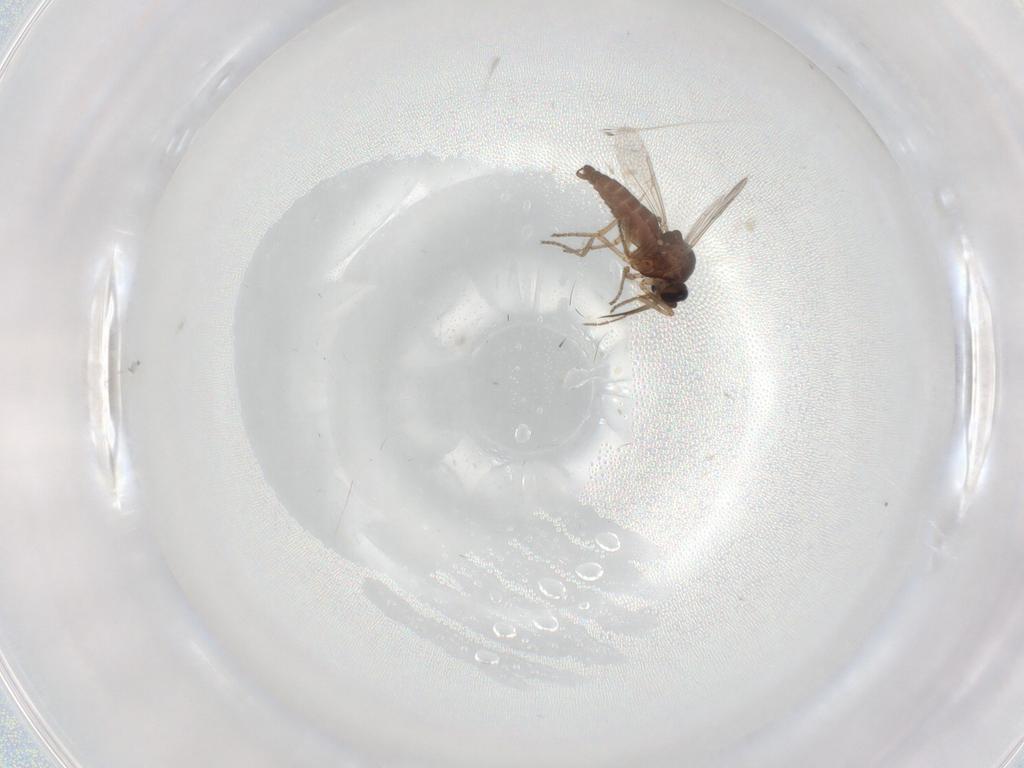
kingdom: Animalia
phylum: Arthropoda
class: Insecta
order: Diptera
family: Ceratopogonidae
